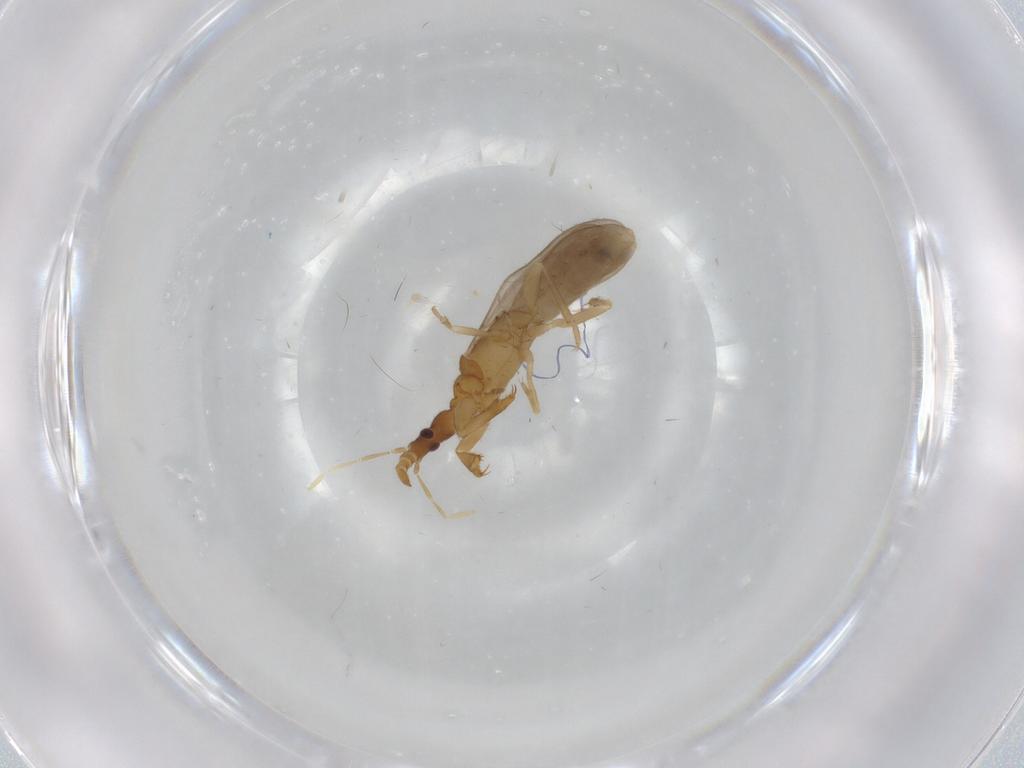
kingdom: Animalia
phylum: Arthropoda
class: Insecta
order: Hemiptera
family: Enicocephalidae
